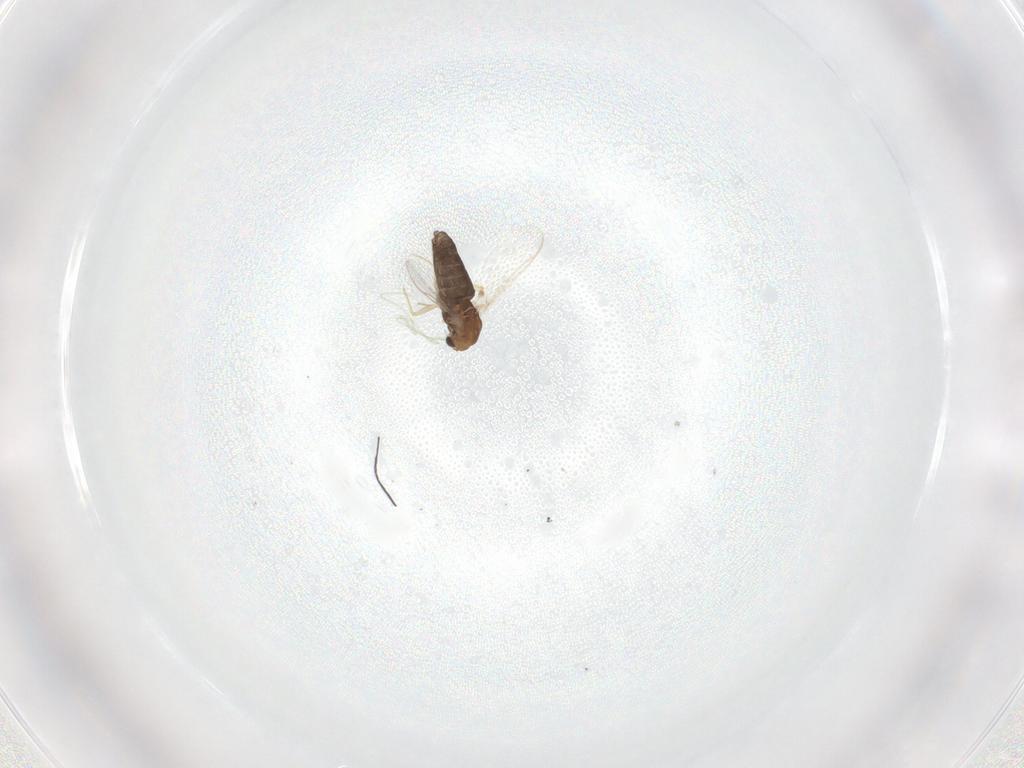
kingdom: Animalia
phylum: Arthropoda
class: Insecta
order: Diptera
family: Chironomidae
